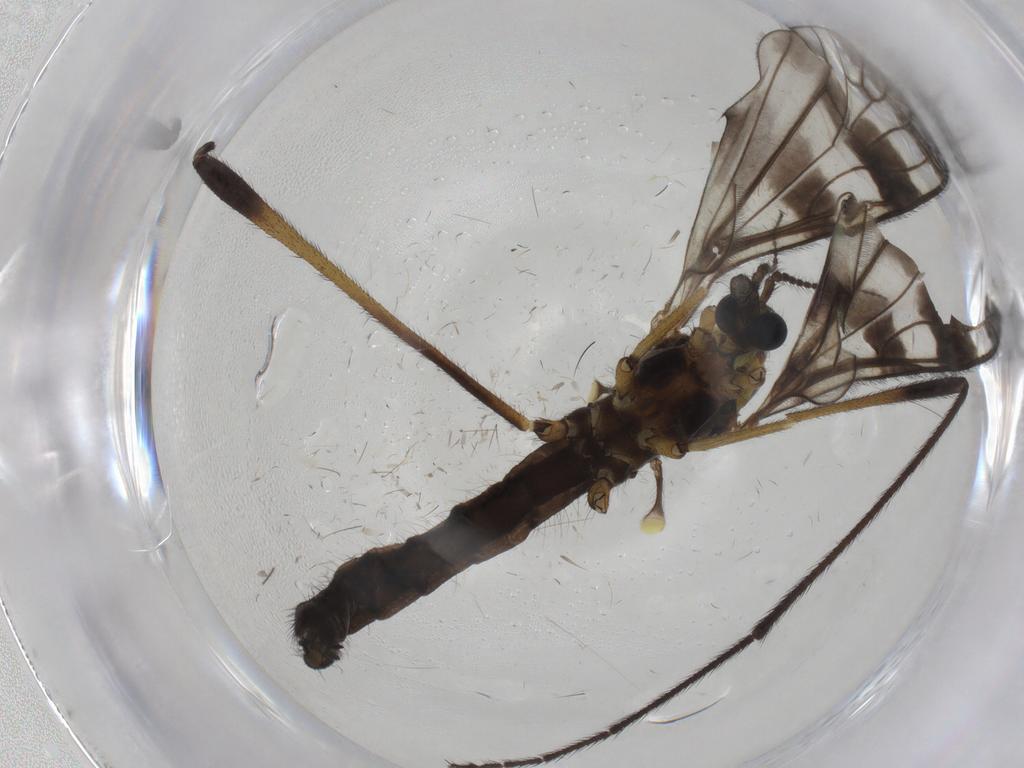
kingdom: Animalia
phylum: Arthropoda
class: Insecta
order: Diptera
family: Limoniidae
